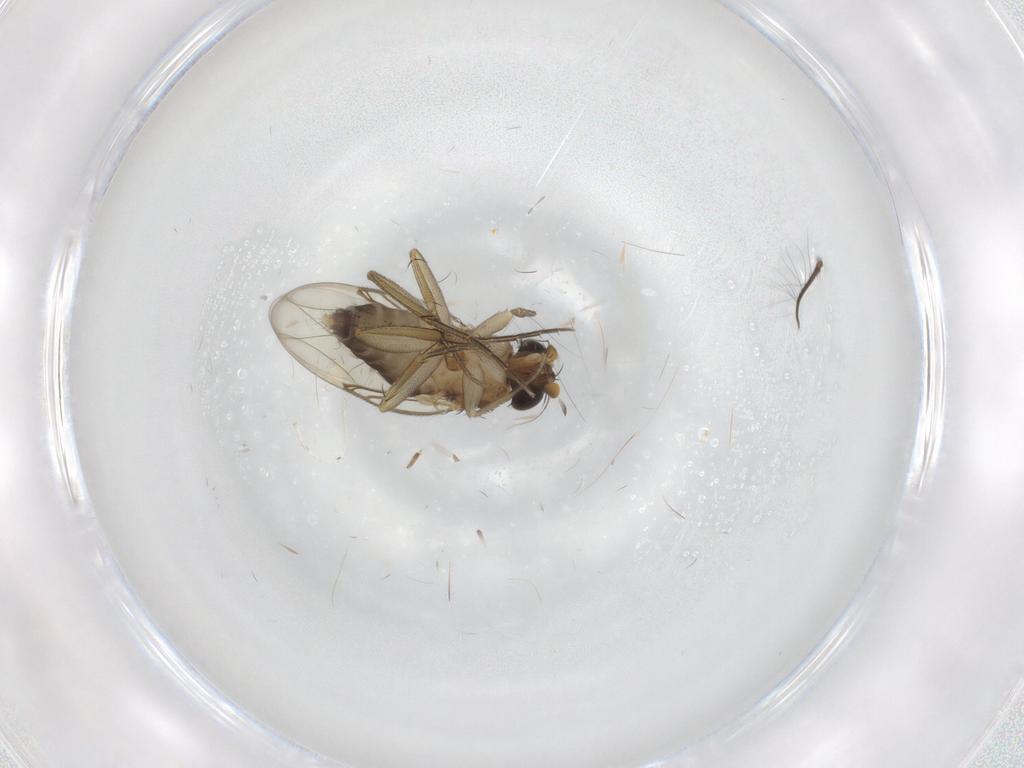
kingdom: Animalia
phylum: Arthropoda
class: Insecta
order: Diptera
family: Phoridae
